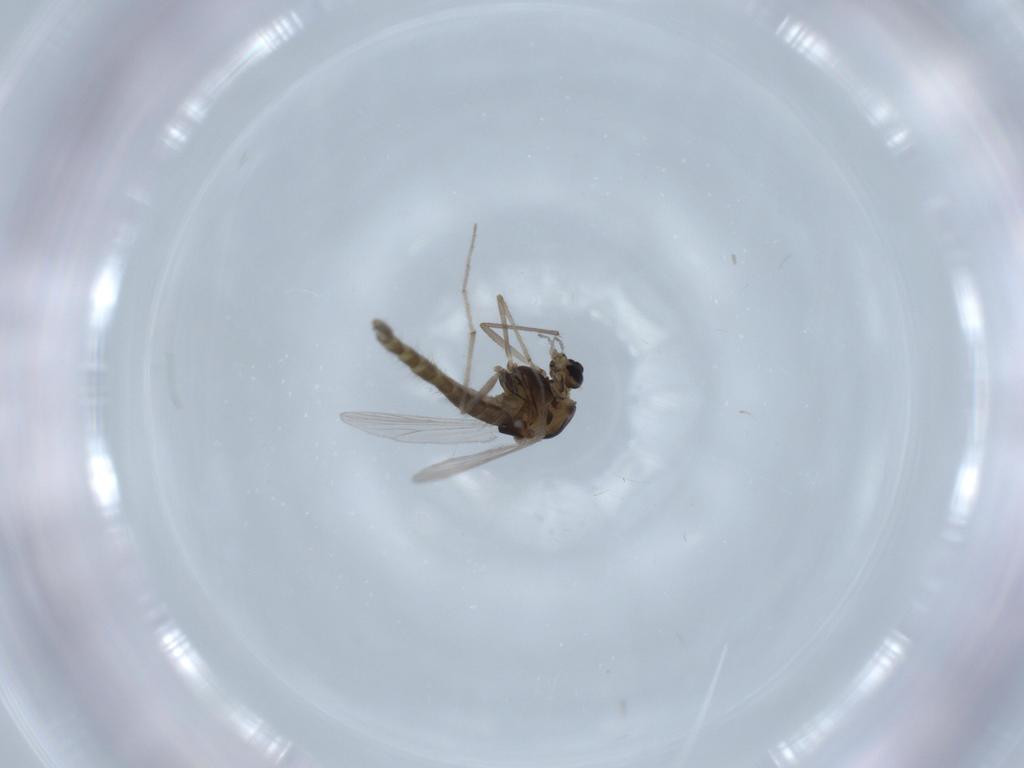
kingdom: Animalia
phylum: Arthropoda
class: Insecta
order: Diptera
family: Chironomidae
